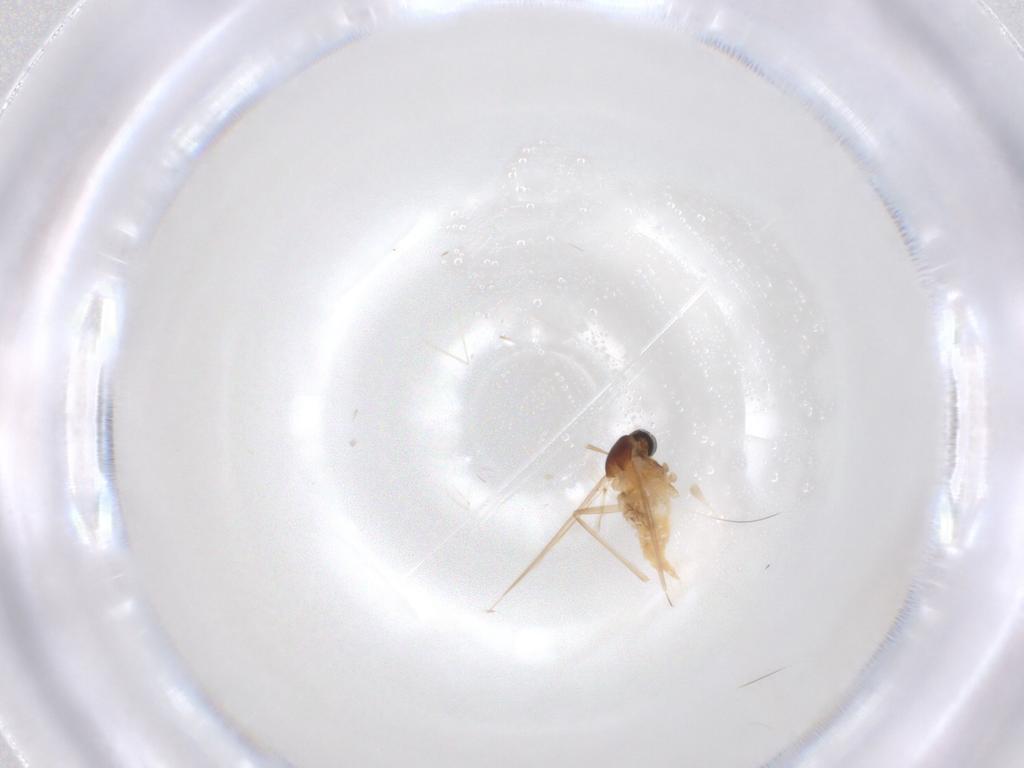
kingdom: Animalia
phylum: Arthropoda
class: Insecta
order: Diptera
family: Cecidomyiidae
